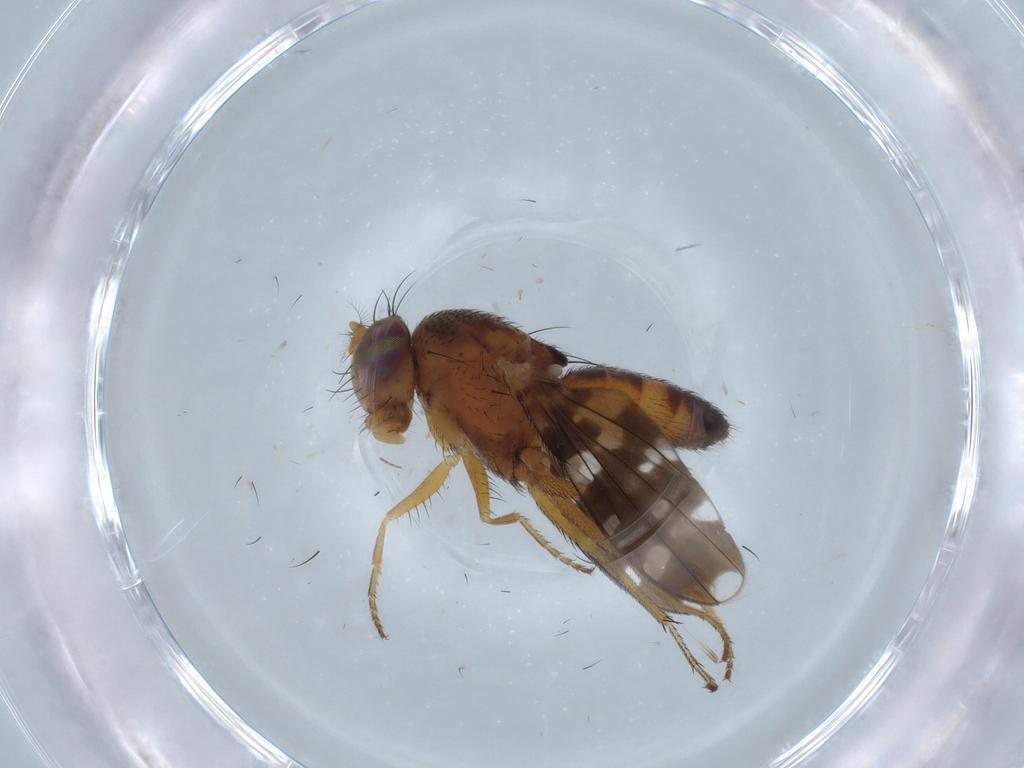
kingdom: Animalia
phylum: Arthropoda
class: Insecta
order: Diptera
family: Ephydridae
